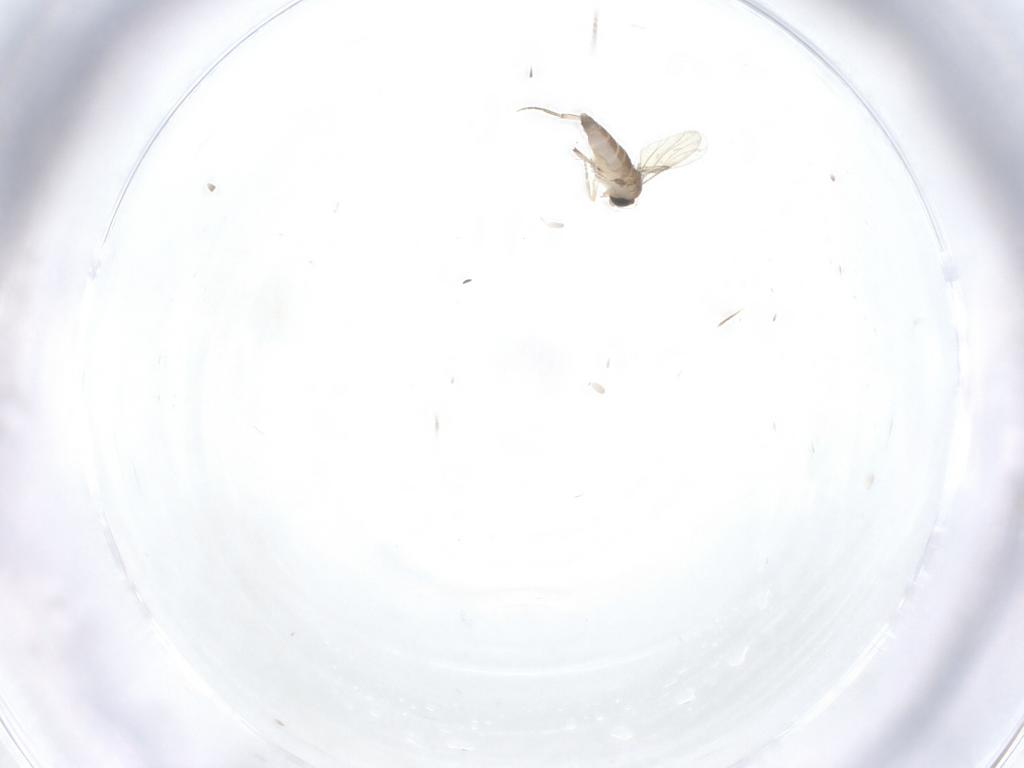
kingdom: Animalia
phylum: Arthropoda
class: Insecta
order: Diptera
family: Phoridae
